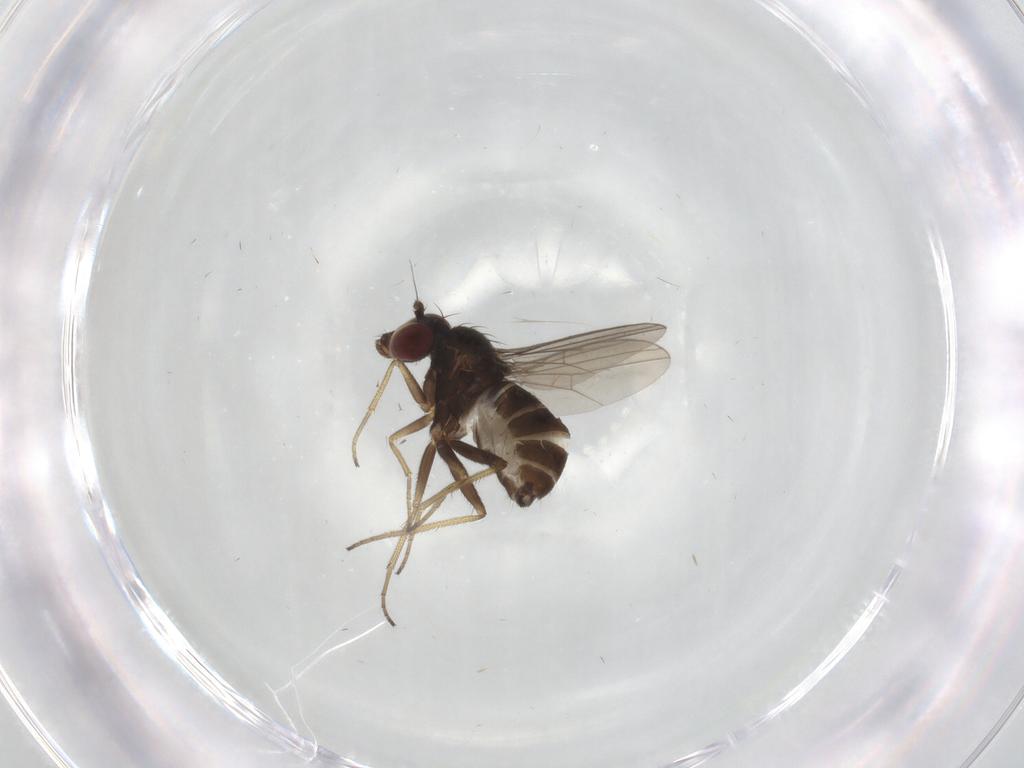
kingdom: Animalia
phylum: Arthropoda
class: Insecta
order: Diptera
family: Dolichopodidae
